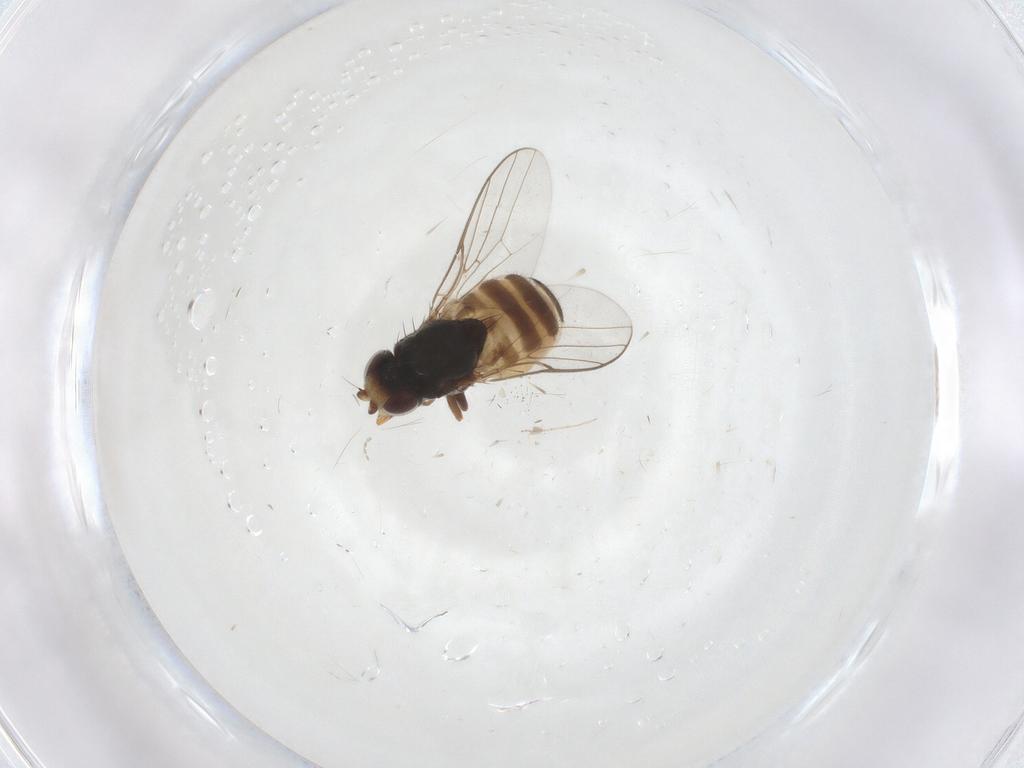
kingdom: Animalia
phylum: Arthropoda
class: Insecta
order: Diptera
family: Chloropidae
